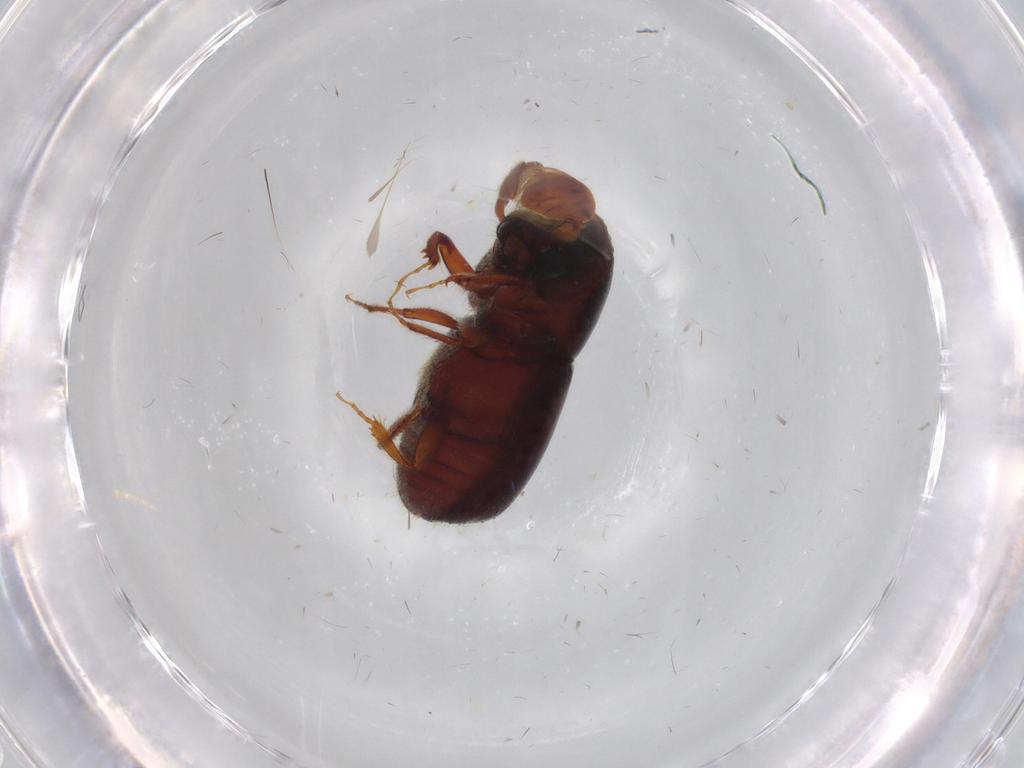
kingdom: Animalia
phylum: Arthropoda
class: Insecta
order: Coleoptera
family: Curculionidae
